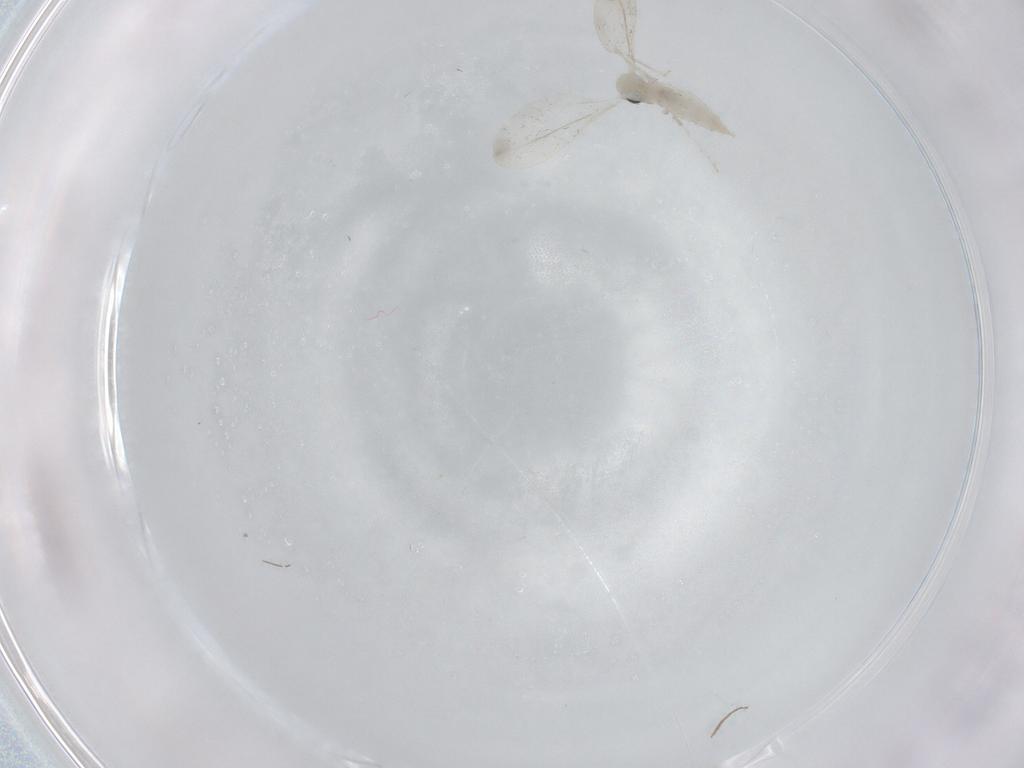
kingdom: Animalia
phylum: Arthropoda
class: Insecta
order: Diptera
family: Cecidomyiidae
